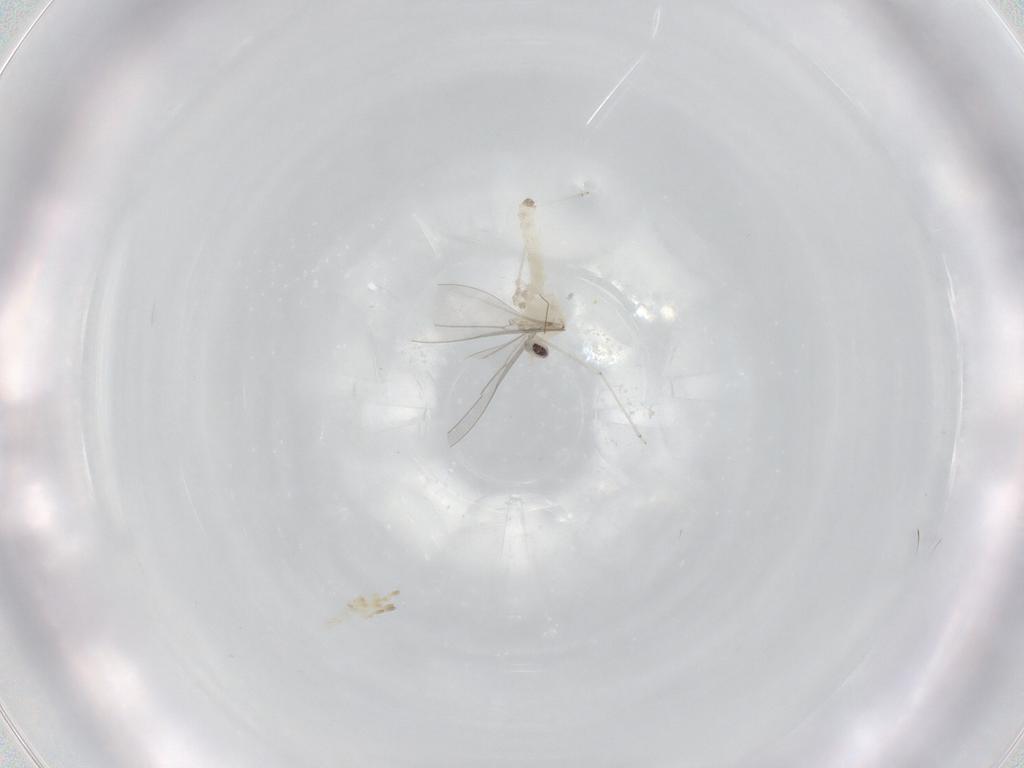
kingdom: Animalia
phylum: Arthropoda
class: Insecta
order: Diptera
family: Cecidomyiidae
